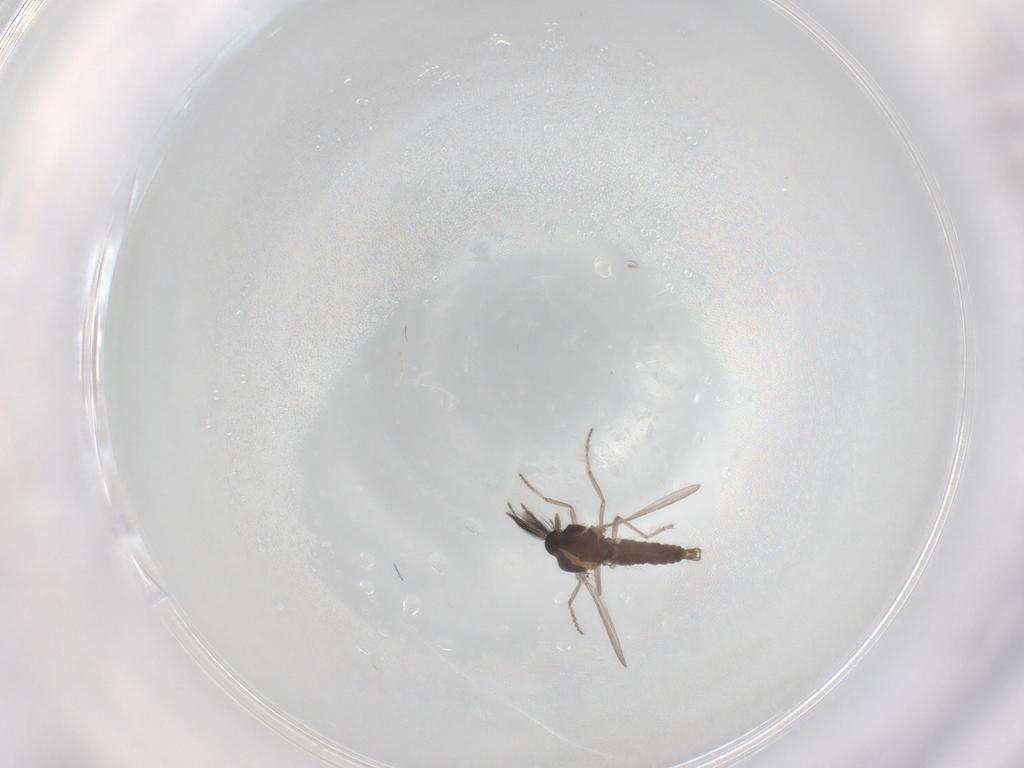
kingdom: Animalia
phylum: Arthropoda
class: Insecta
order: Diptera
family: Ceratopogonidae
